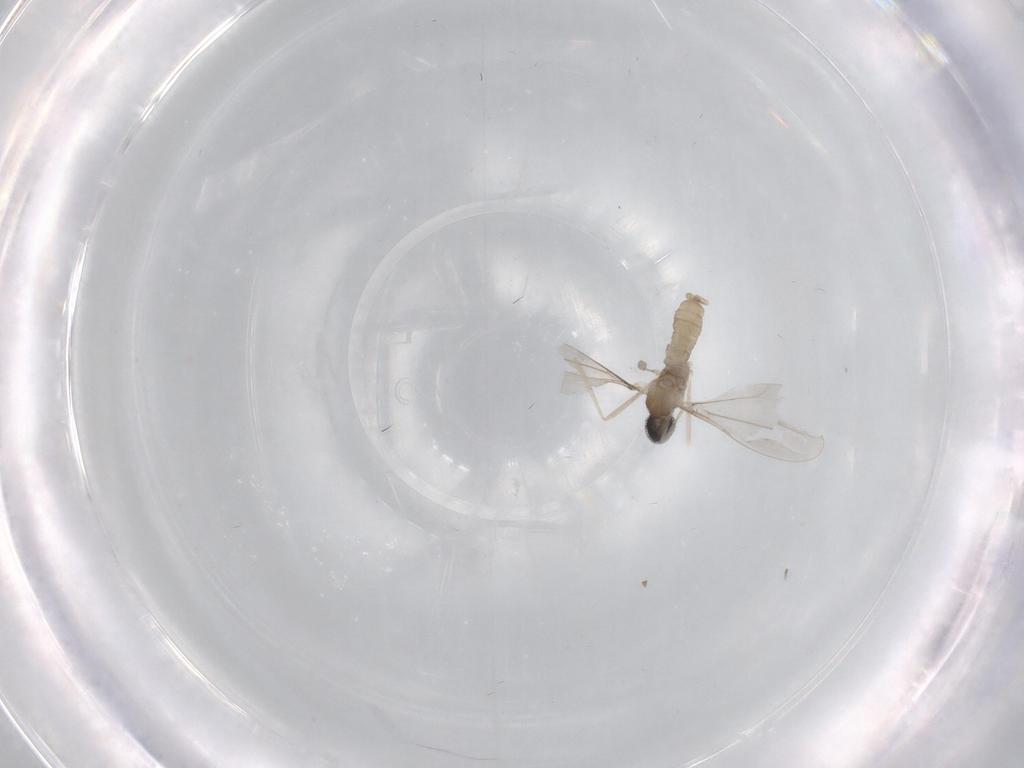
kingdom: Animalia
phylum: Arthropoda
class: Insecta
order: Diptera
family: Cecidomyiidae
